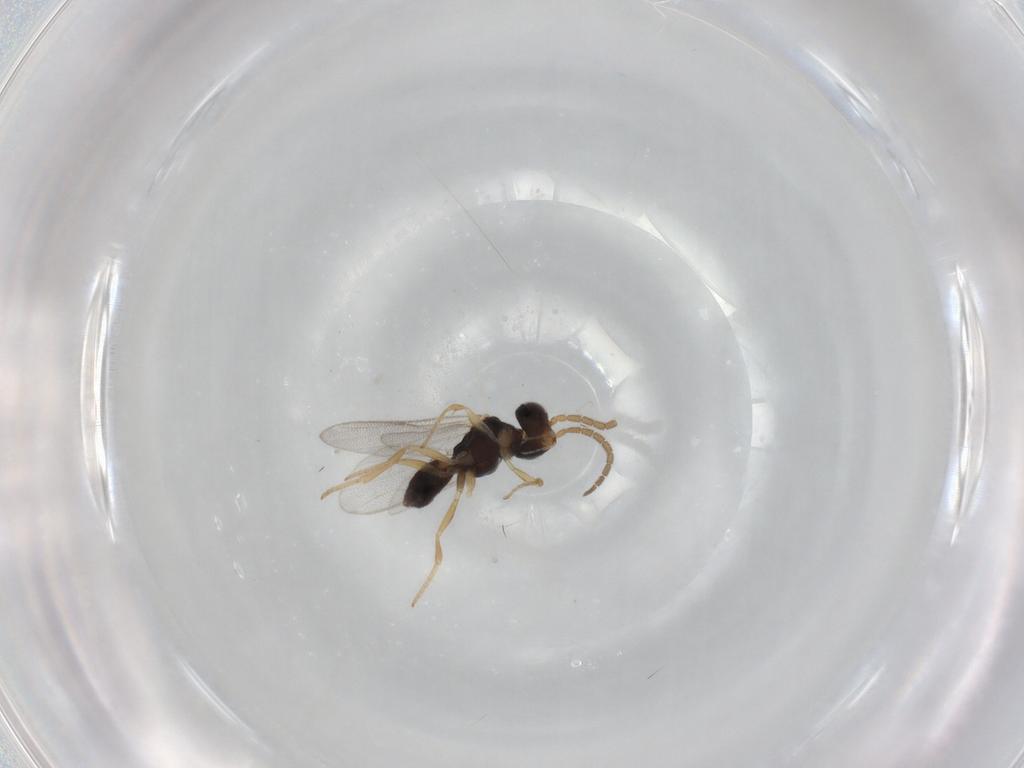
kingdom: Animalia
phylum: Arthropoda
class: Insecta
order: Hymenoptera
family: Dryinidae
